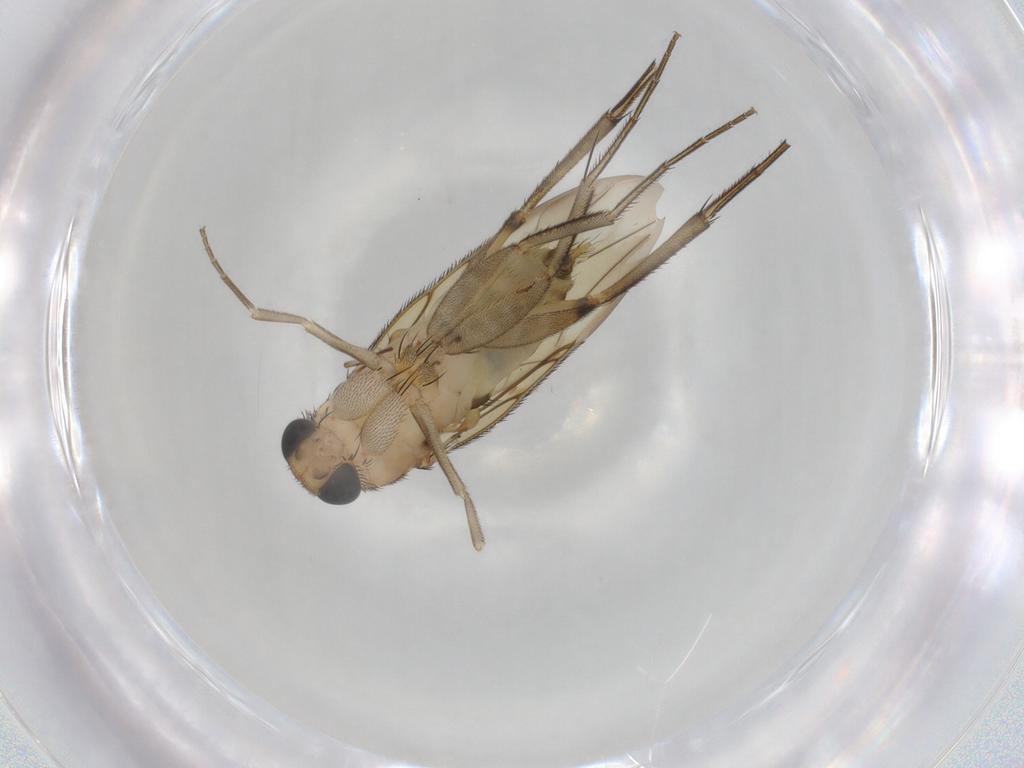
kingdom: Animalia
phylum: Arthropoda
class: Insecta
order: Diptera
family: Phoridae
